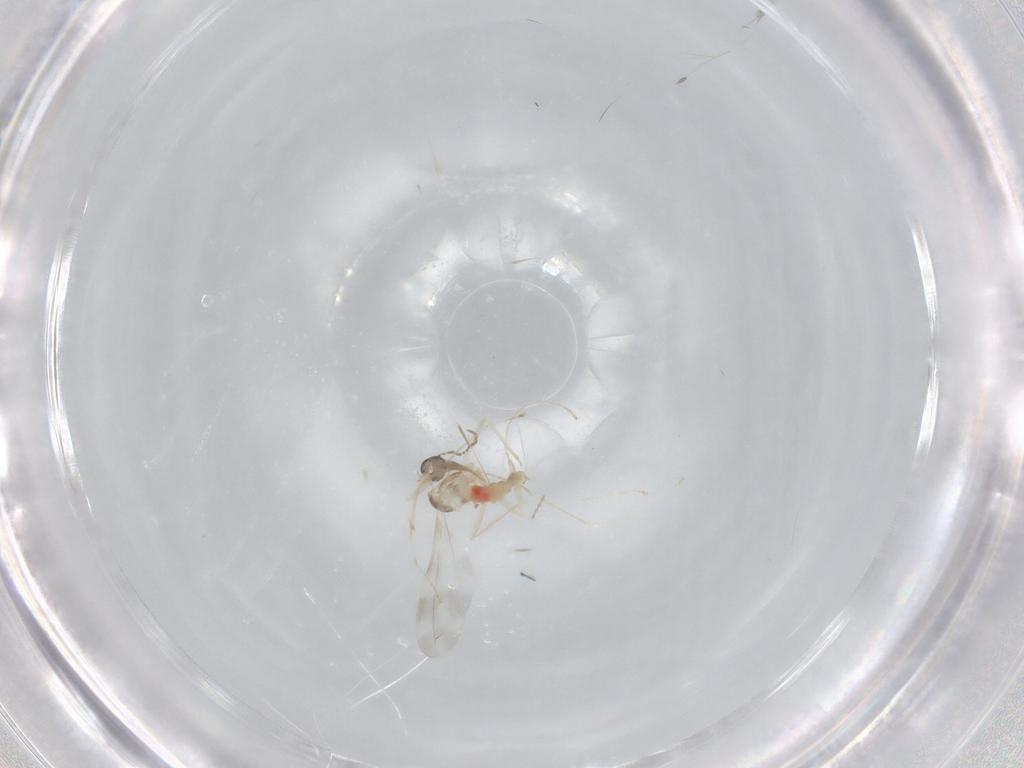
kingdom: Animalia
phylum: Arthropoda
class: Insecta
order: Diptera
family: Cecidomyiidae
